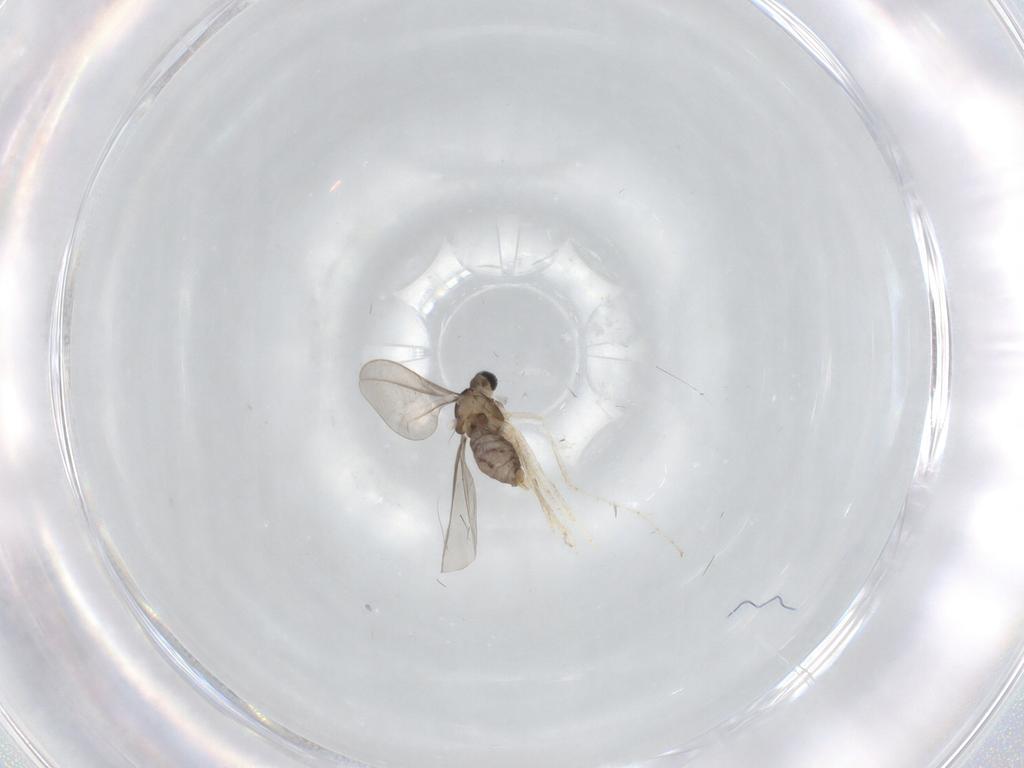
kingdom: Animalia
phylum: Arthropoda
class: Insecta
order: Diptera
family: Cecidomyiidae
